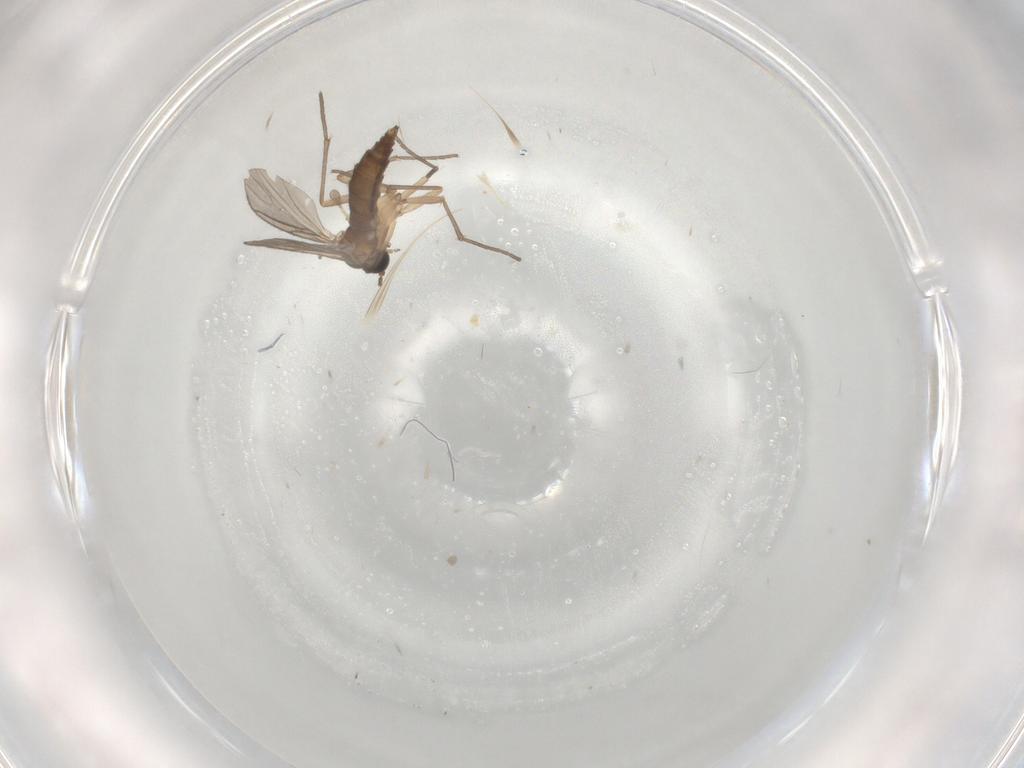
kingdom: Animalia
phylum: Arthropoda
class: Insecta
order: Diptera
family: Sciaridae
